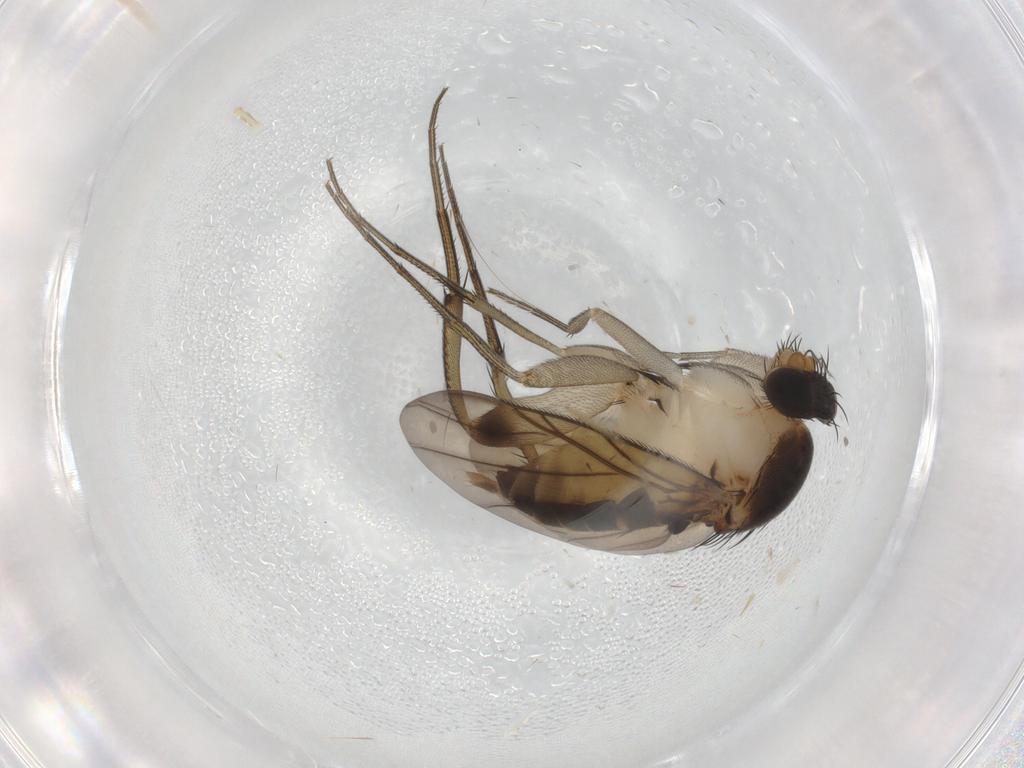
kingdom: Animalia
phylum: Arthropoda
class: Insecta
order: Diptera
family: Phoridae
